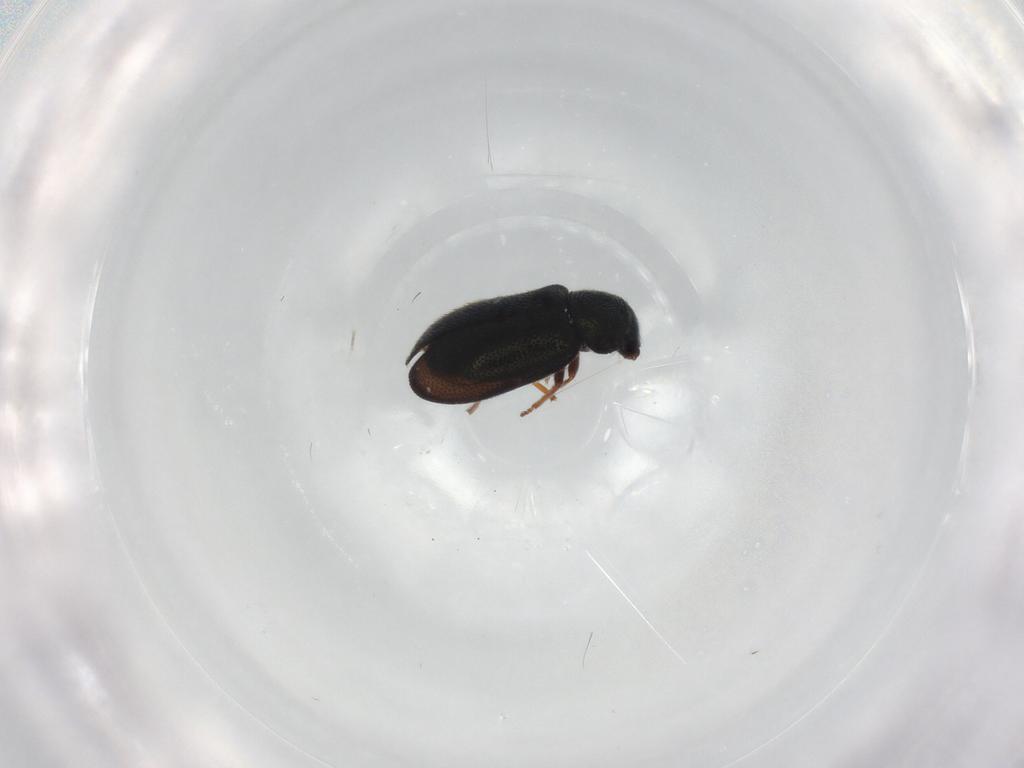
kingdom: Animalia
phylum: Arthropoda
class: Insecta
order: Coleoptera
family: Melyridae
